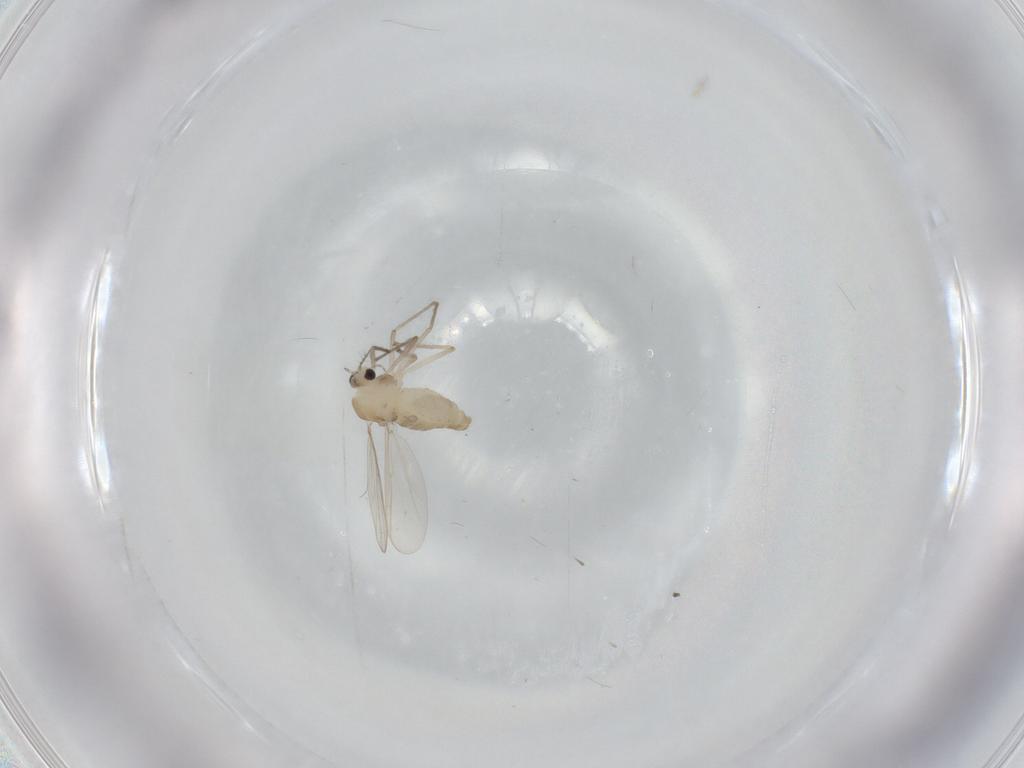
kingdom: Animalia
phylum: Arthropoda
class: Insecta
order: Diptera
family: Chironomidae
